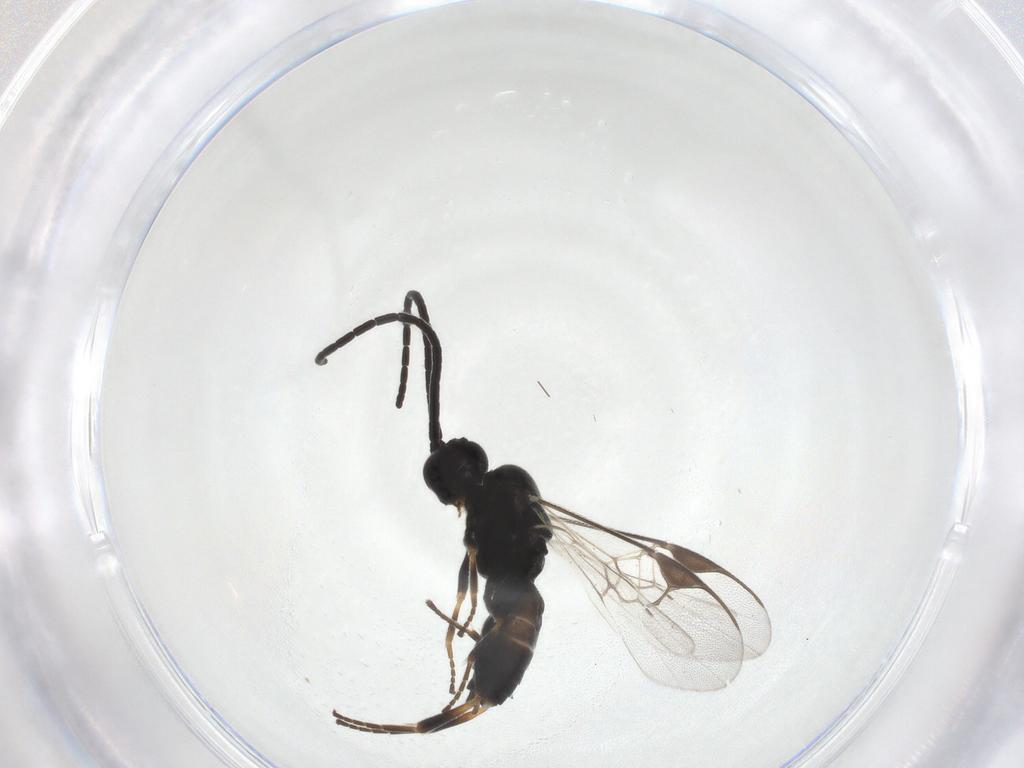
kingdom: Animalia
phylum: Arthropoda
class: Insecta
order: Hymenoptera
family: Braconidae
